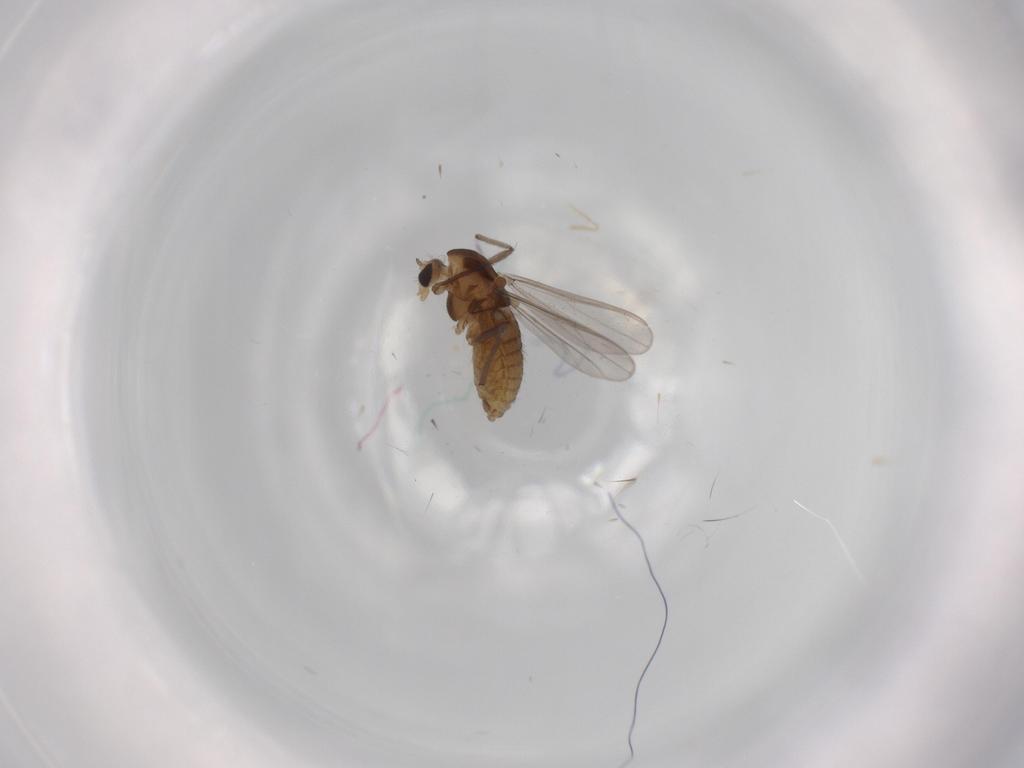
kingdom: Animalia
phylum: Arthropoda
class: Insecta
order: Diptera
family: Chironomidae
